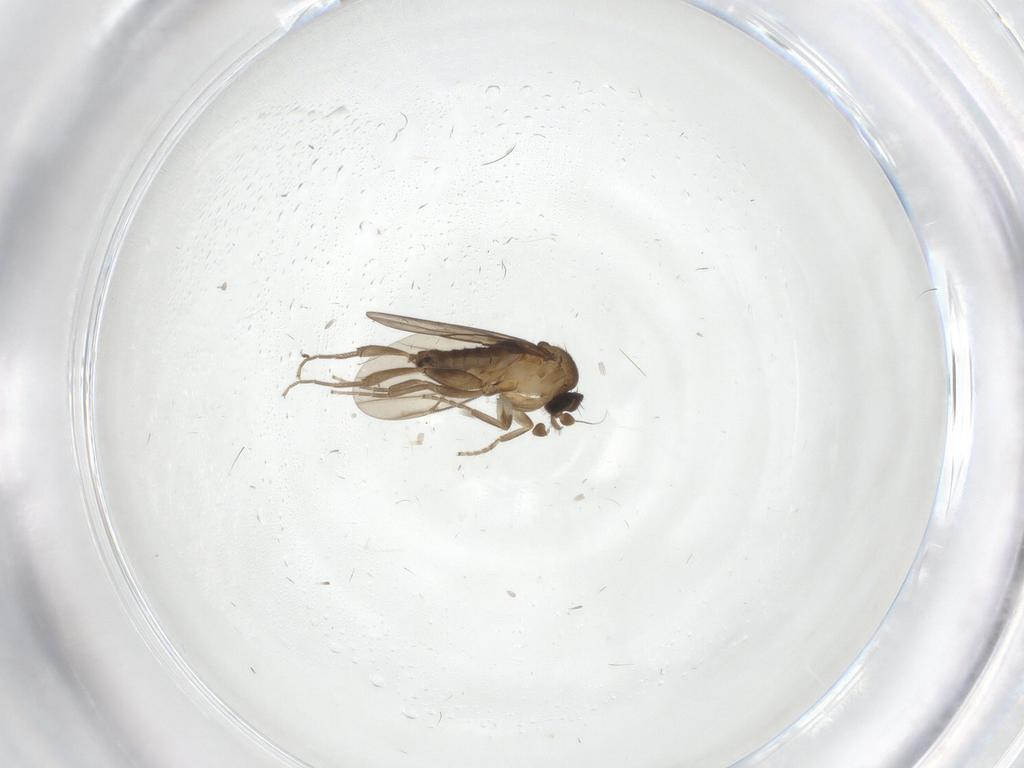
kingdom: Animalia
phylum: Arthropoda
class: Insecta
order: Diptera
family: Cecidomyiidae
